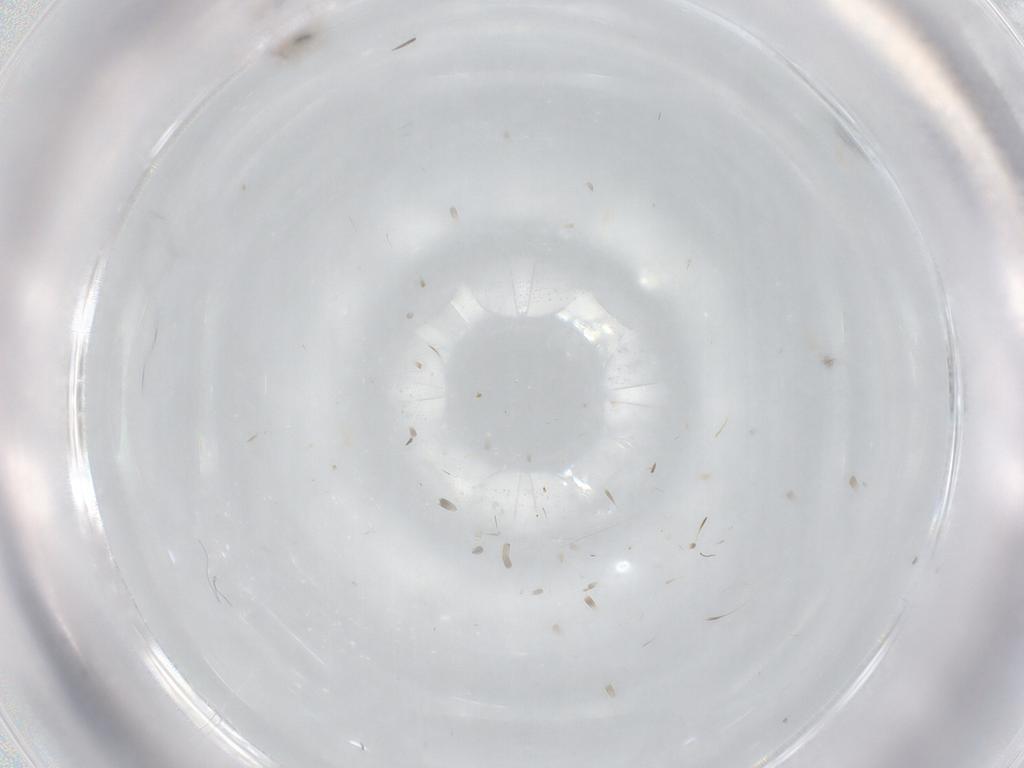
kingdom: Animalia
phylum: Arthropoda
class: Insecta
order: Hymenoptera
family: Mymaridae
